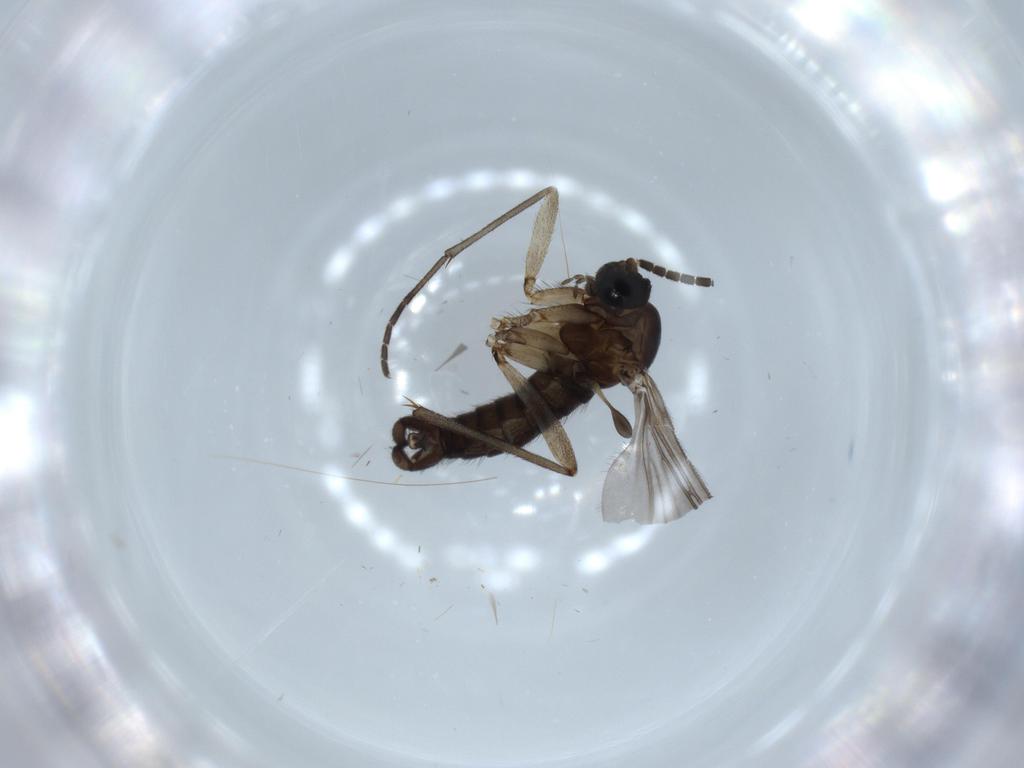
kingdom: Animalia
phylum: Arthropoda
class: Insecta
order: Diptera
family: Sciaridae
